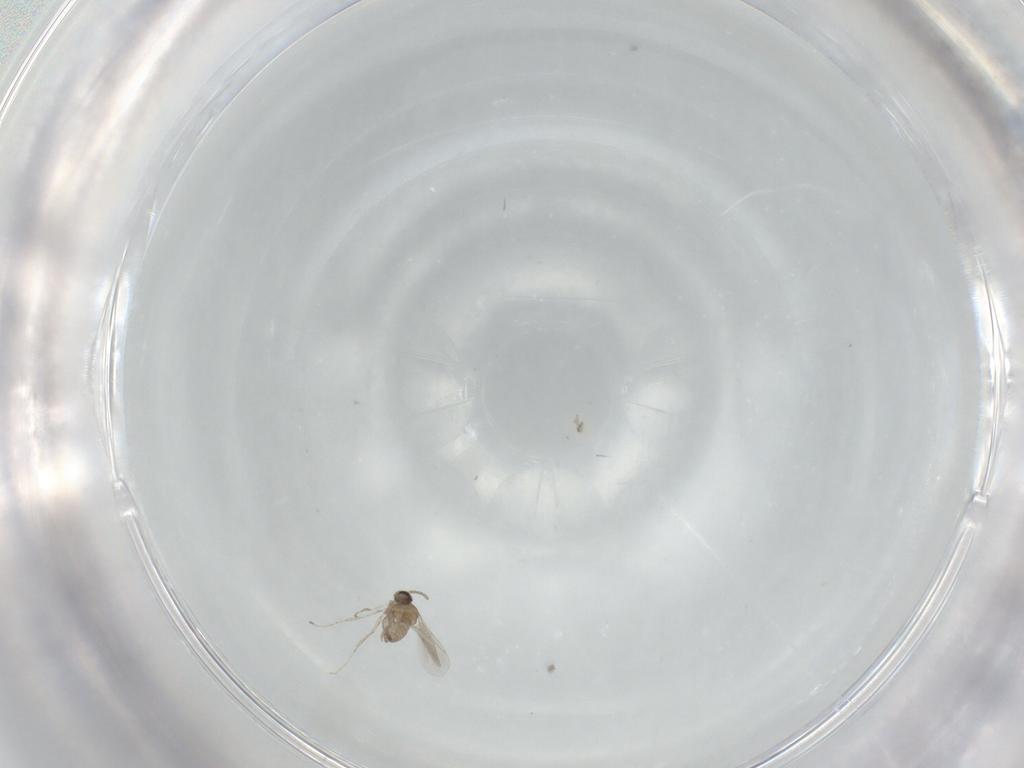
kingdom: Animalia
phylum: Arthropoda
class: Insecta
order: Diptera
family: Cecidomyiidae
